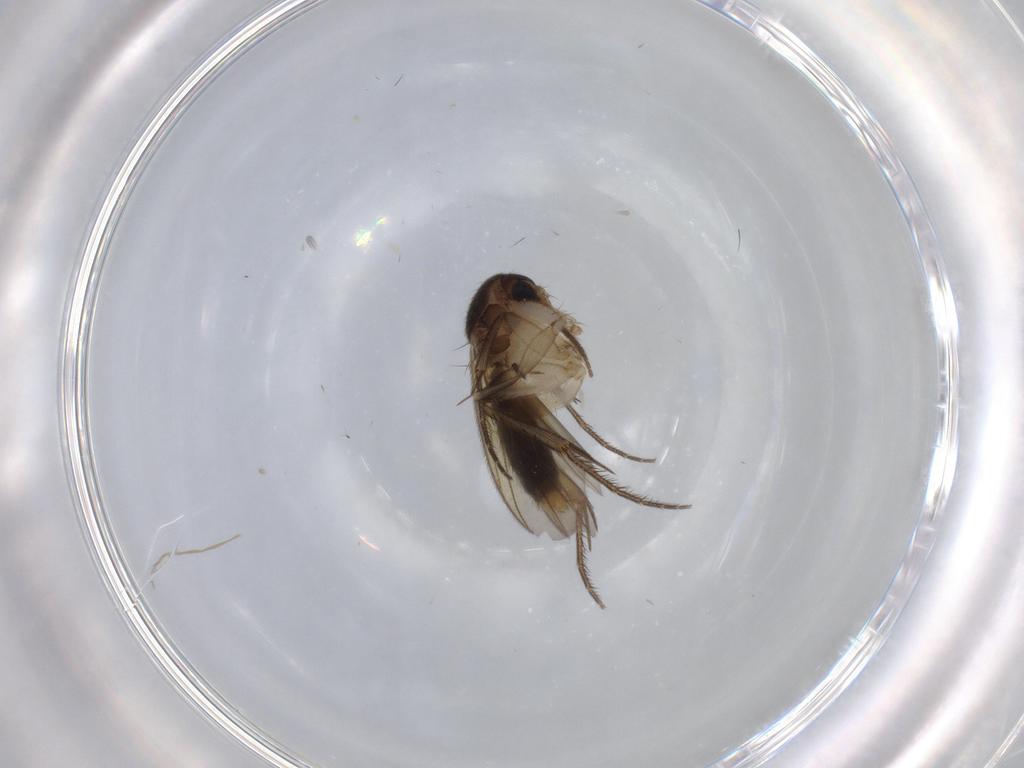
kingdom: Animalia
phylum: Arthropoda
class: Insecta
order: Diptera
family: Mycetophilidae
